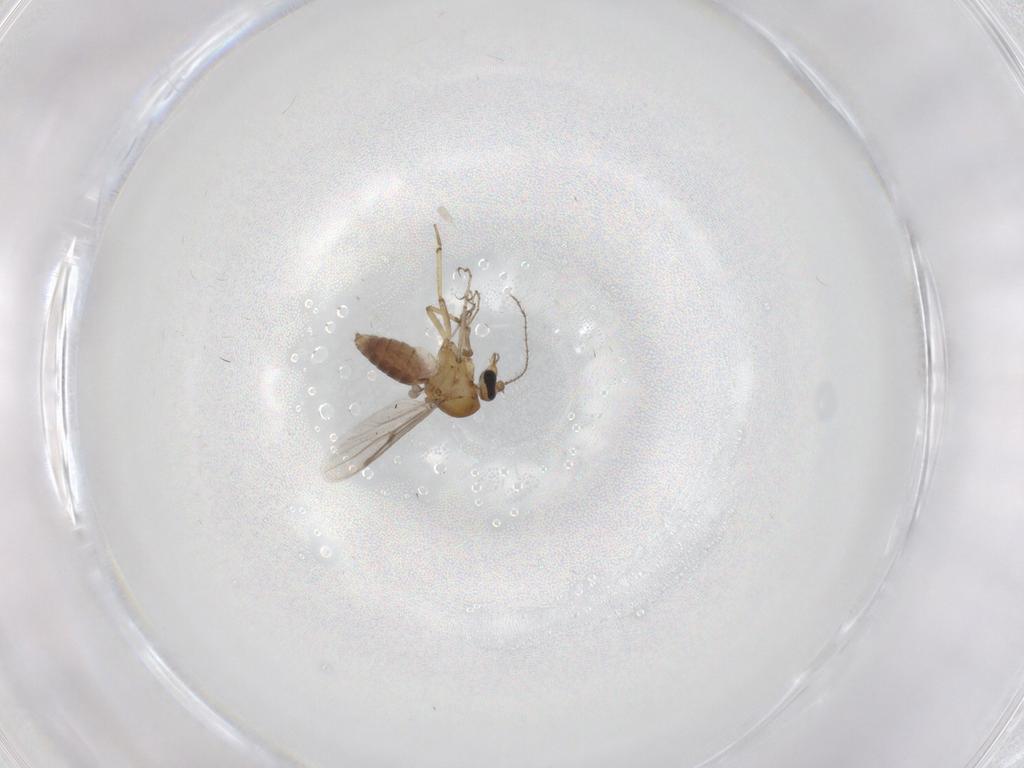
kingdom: Animalia
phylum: Arthropoda
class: Insecta
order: Diptera
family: Ceratopogonidae
